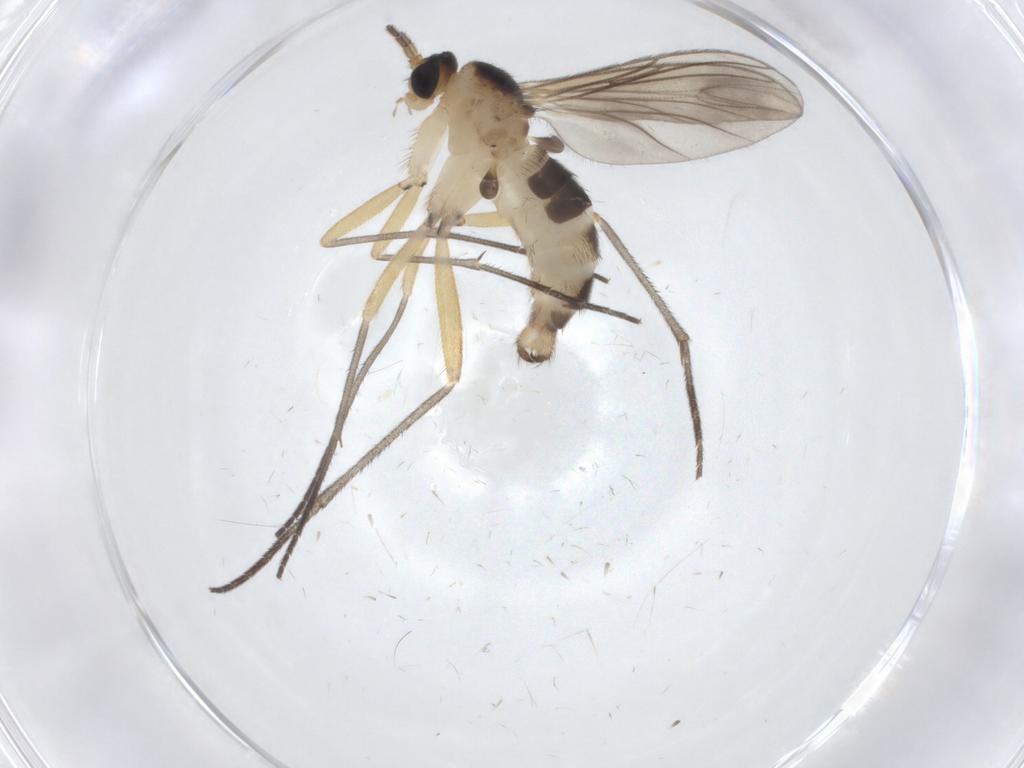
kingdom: Animalia
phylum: Arthropoda
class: Insecta
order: Diptera
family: Sciaridae
